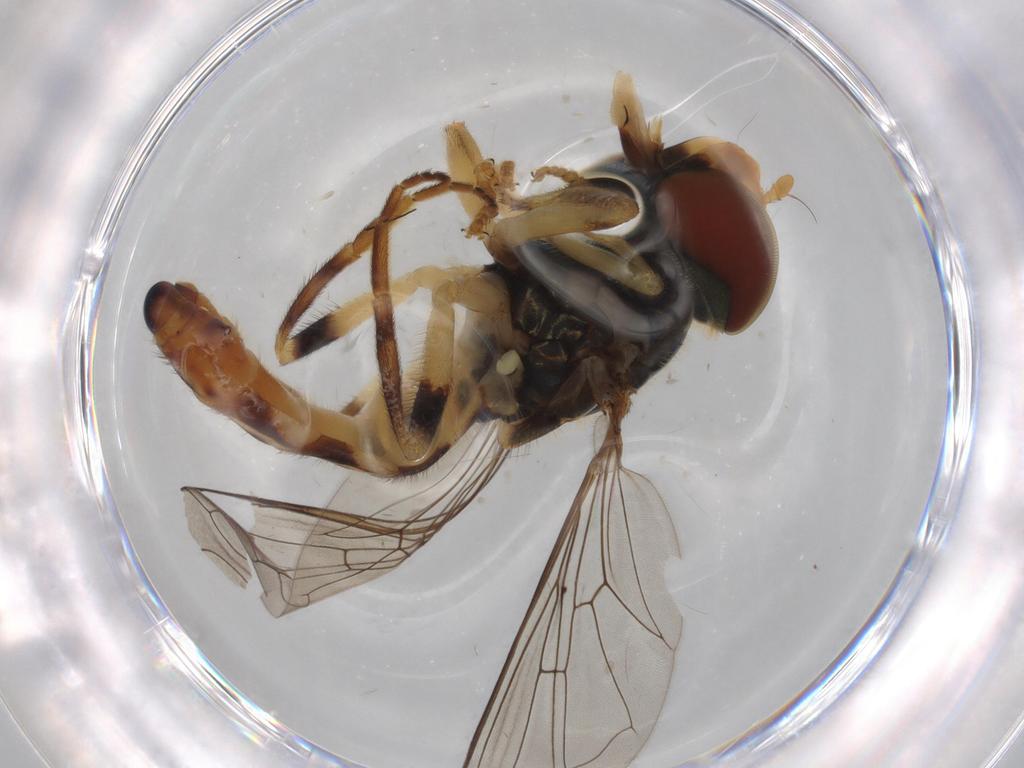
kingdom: Animalia
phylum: Arthropoda
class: Insecta
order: Diptera
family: Syrphidae
